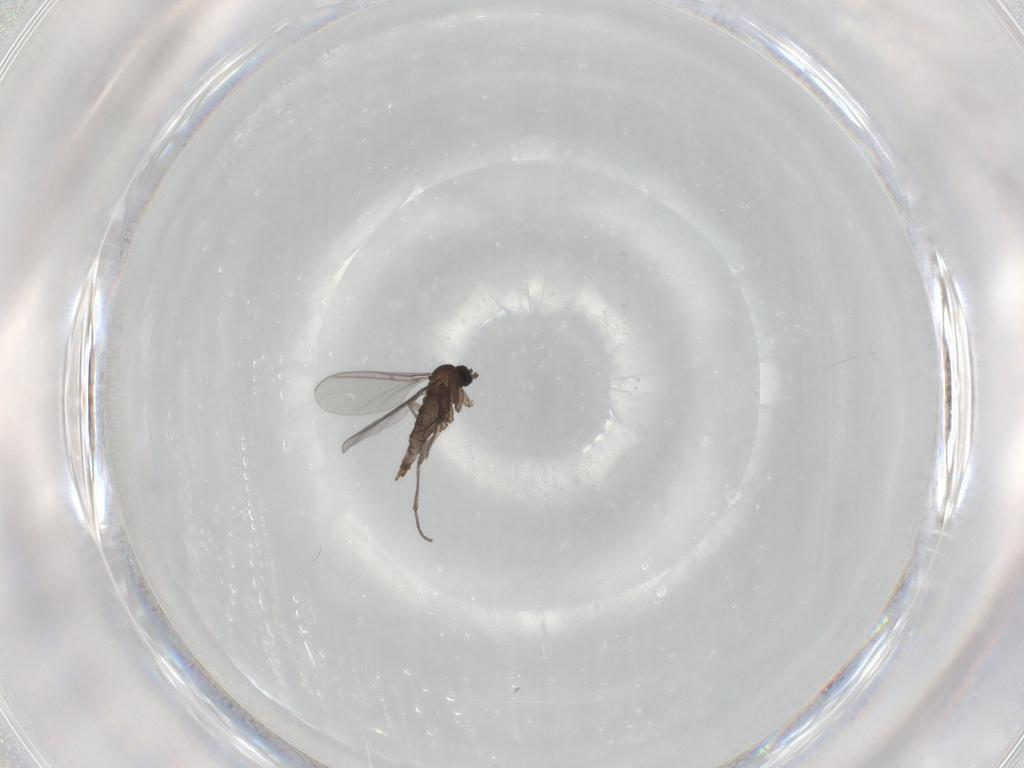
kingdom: Animalia
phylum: Arthropoda
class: Insecta
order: Diptera
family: Sciaridae
